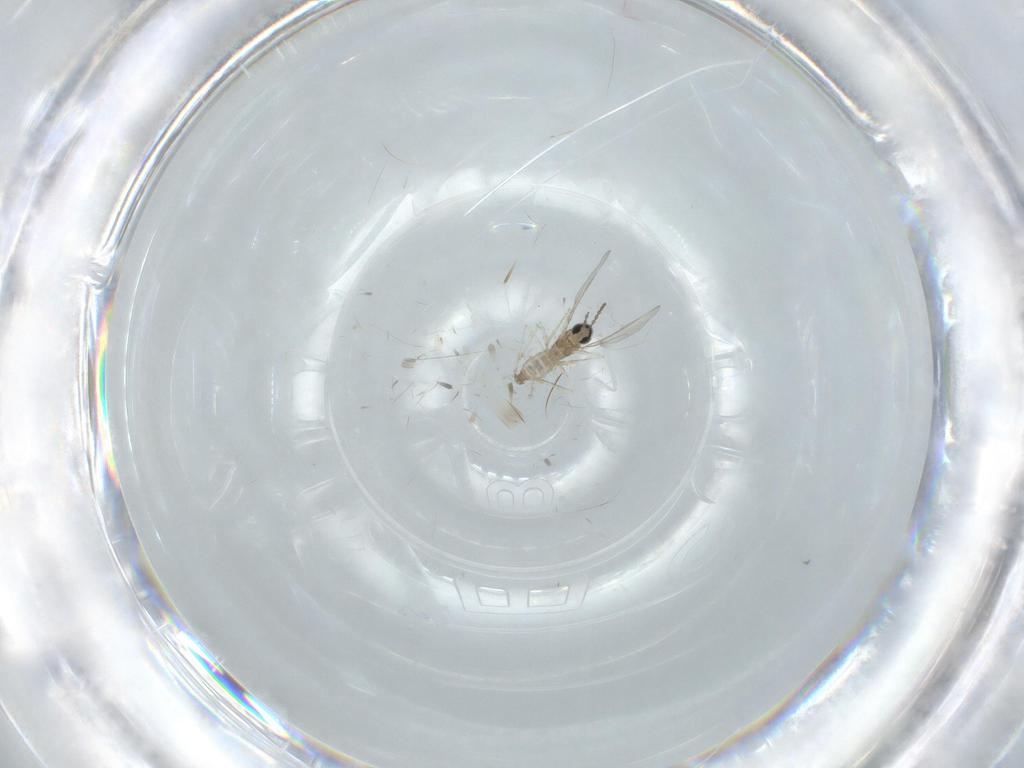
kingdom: Animalia
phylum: Arthropoda
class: Insecta
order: Diptera
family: Cecidomyiidae
